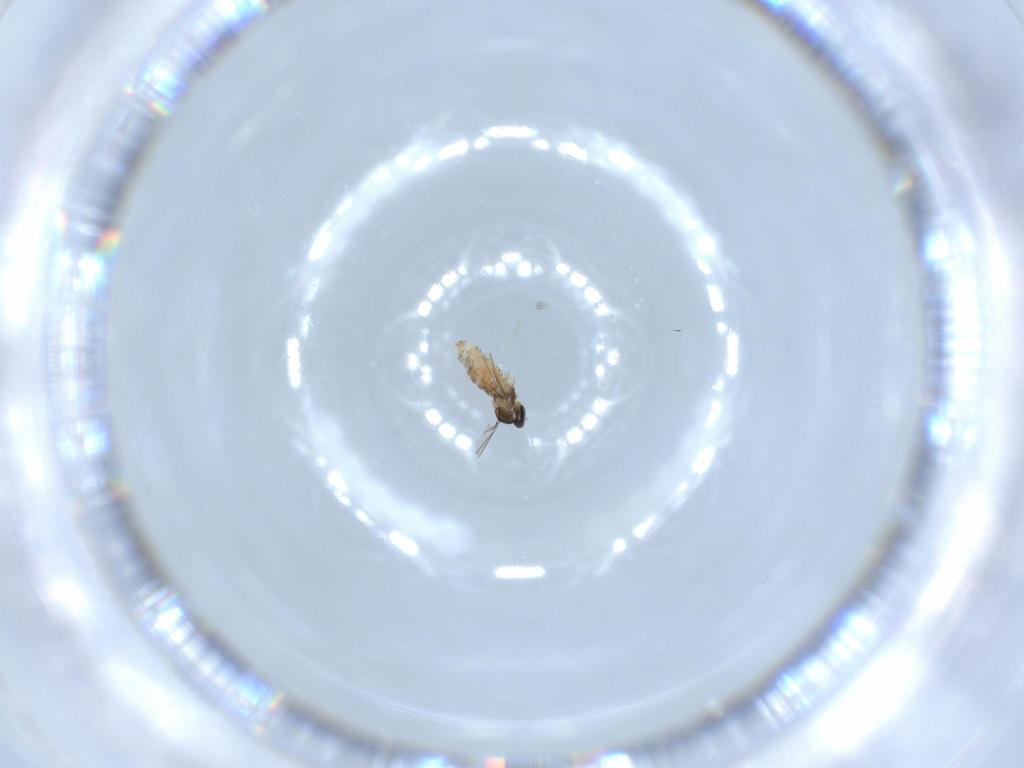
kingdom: Animalia
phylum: Arthropoda
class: Insecta
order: Diptera
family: Cecidomyiidae
